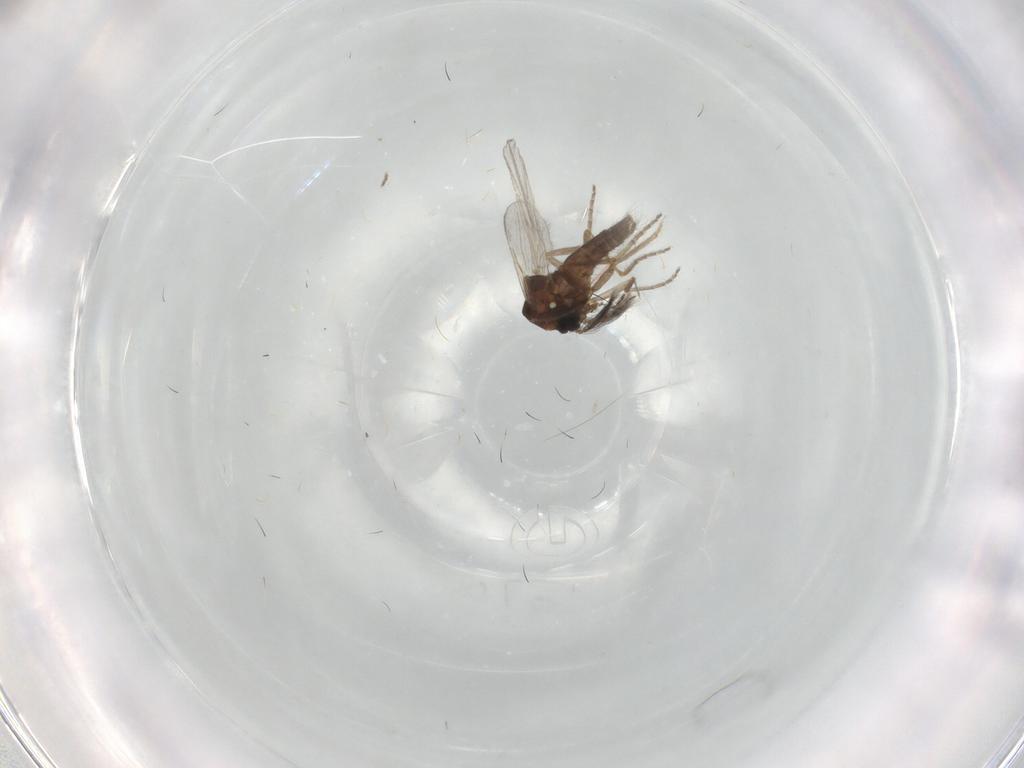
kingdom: Animalia
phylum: Arthropoda
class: Insecta
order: Diptera
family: Ceratopogonidae
